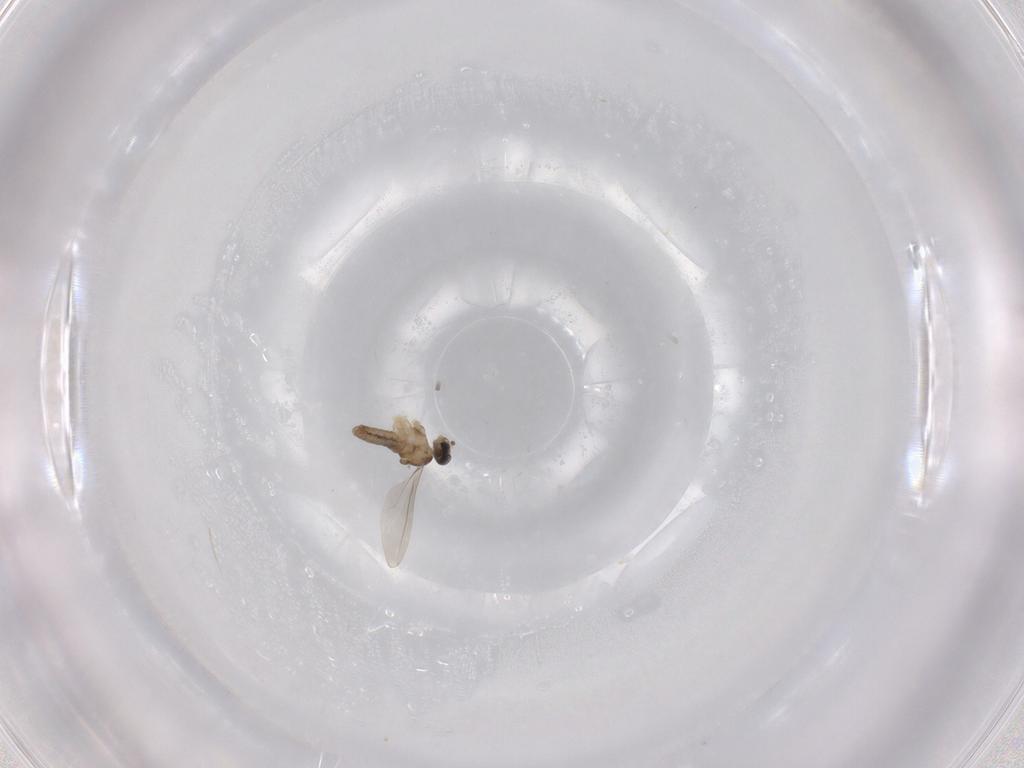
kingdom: Animalia
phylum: Arthropoda
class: Insecta
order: Diptera
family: Cecidomyiidae
